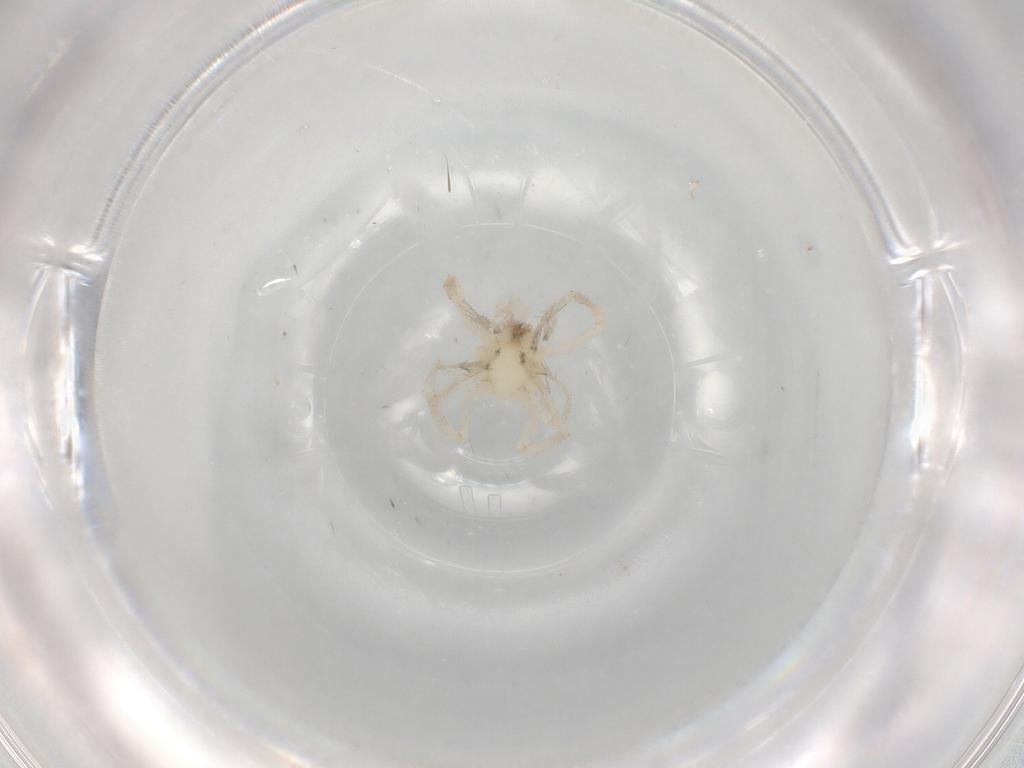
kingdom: Animalia
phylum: Arthropoda
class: Arachnida
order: Araneae
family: Anyphaenidae
